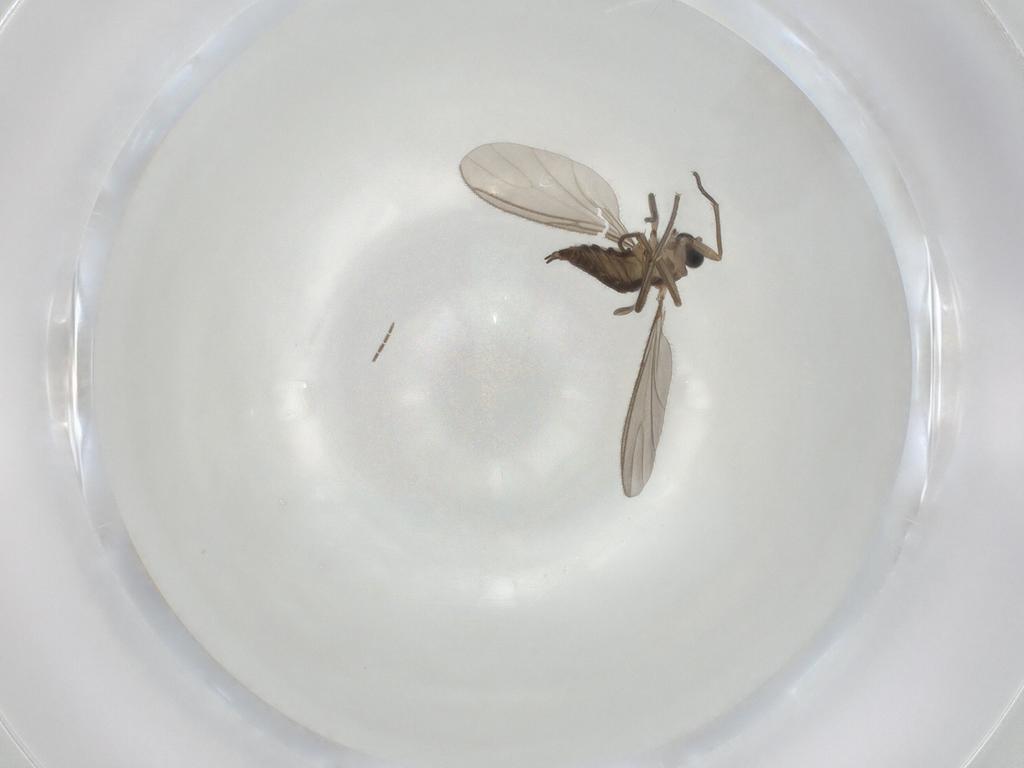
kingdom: Animalia
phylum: Arthropoda
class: Insecta
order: Diptera
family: Sciaridae
